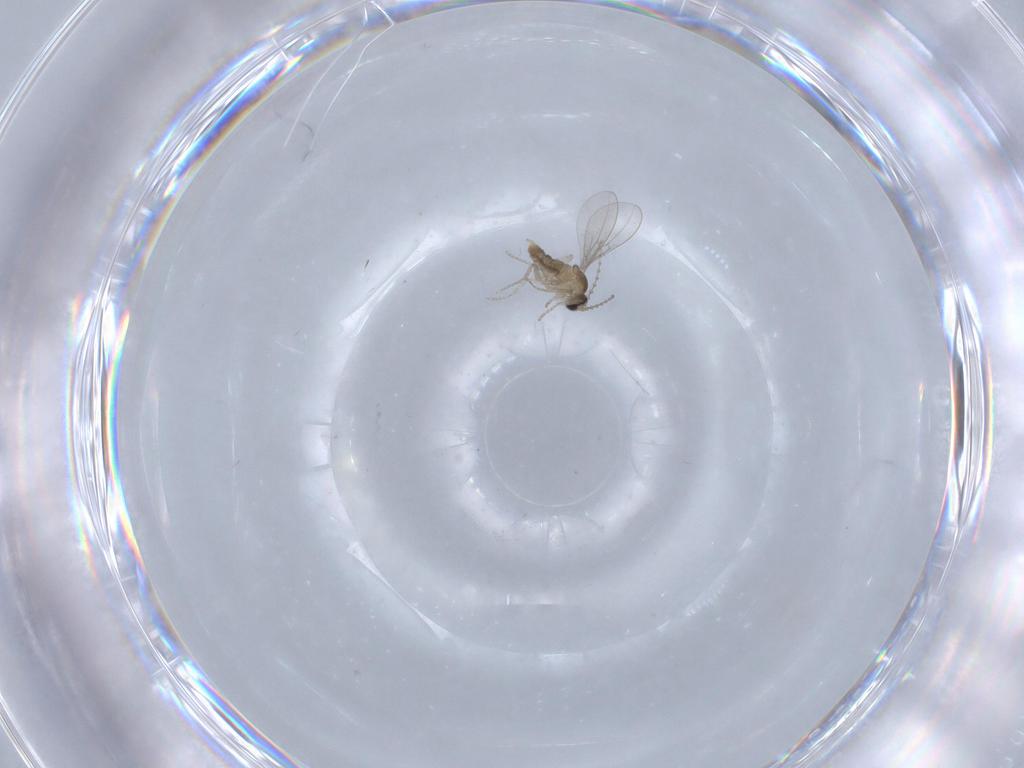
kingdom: Animalia
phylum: Arthropoda
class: Insecta
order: Diptera
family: Cecidomyiidae
